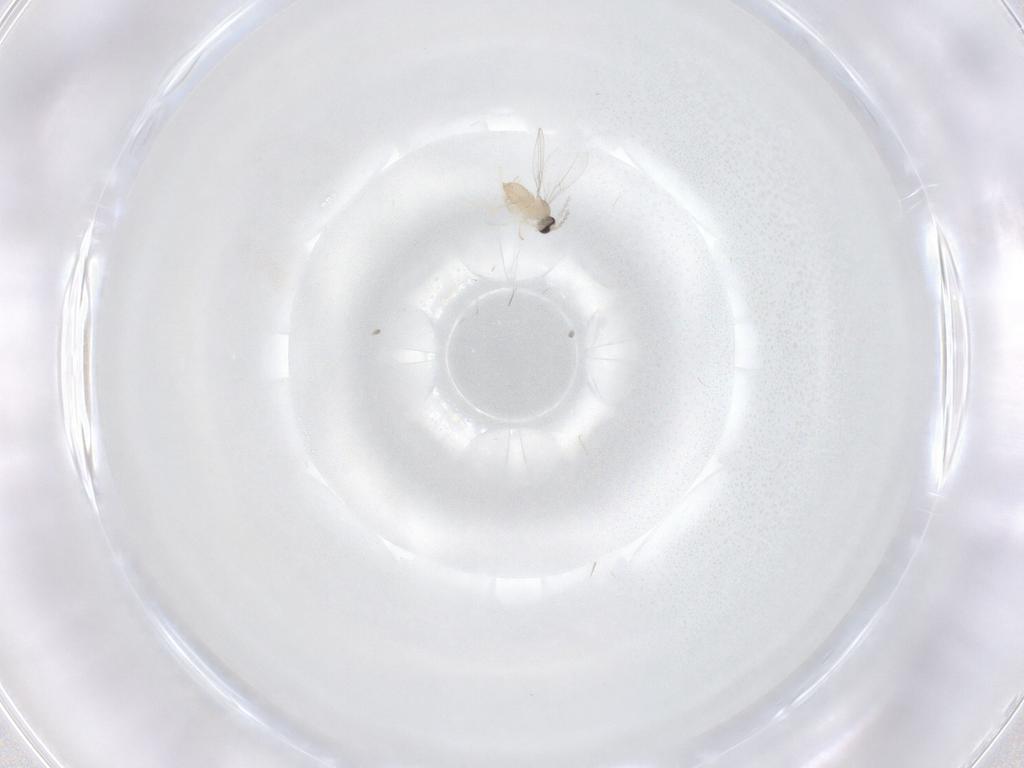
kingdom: Animalia
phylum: Arthropoda
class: Insecta
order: Diptera
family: Cecidomyiidae
